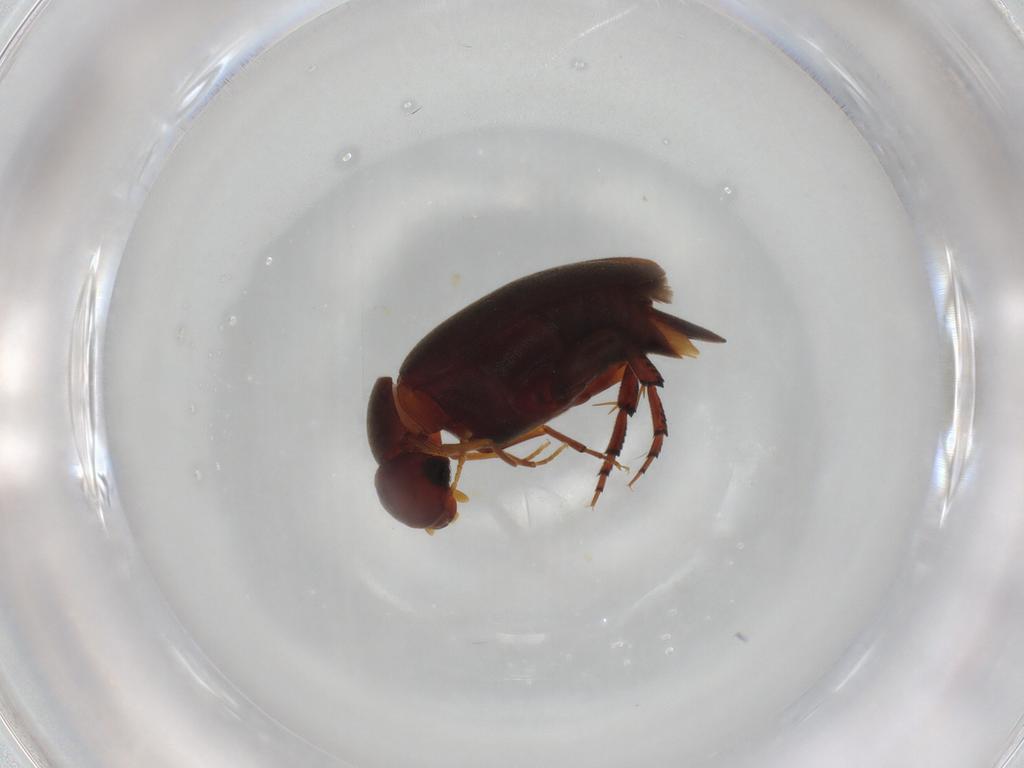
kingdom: Animalia
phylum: Arthropoda
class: Insecta
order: Coleoptera
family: Mordellidae
